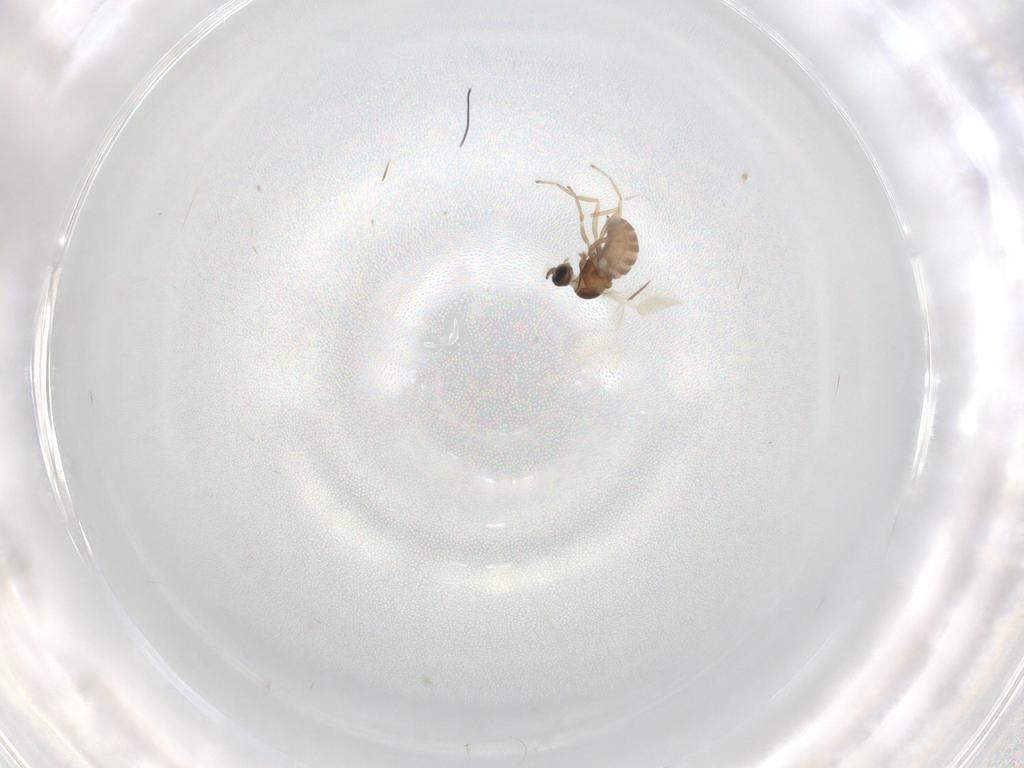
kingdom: Animalia
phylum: Arthropoda
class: Insecta
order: Diptera
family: Cecidomyiidae
